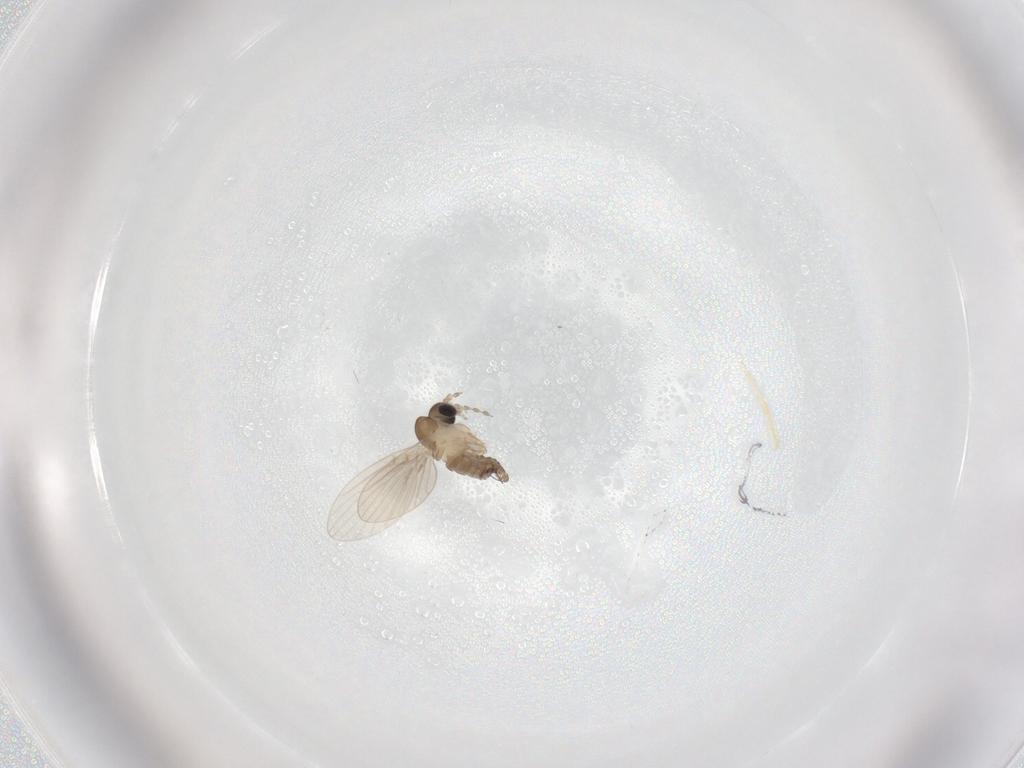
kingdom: Animalia
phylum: Arthropoda
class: Insecta
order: Diptera
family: Psychodidae
